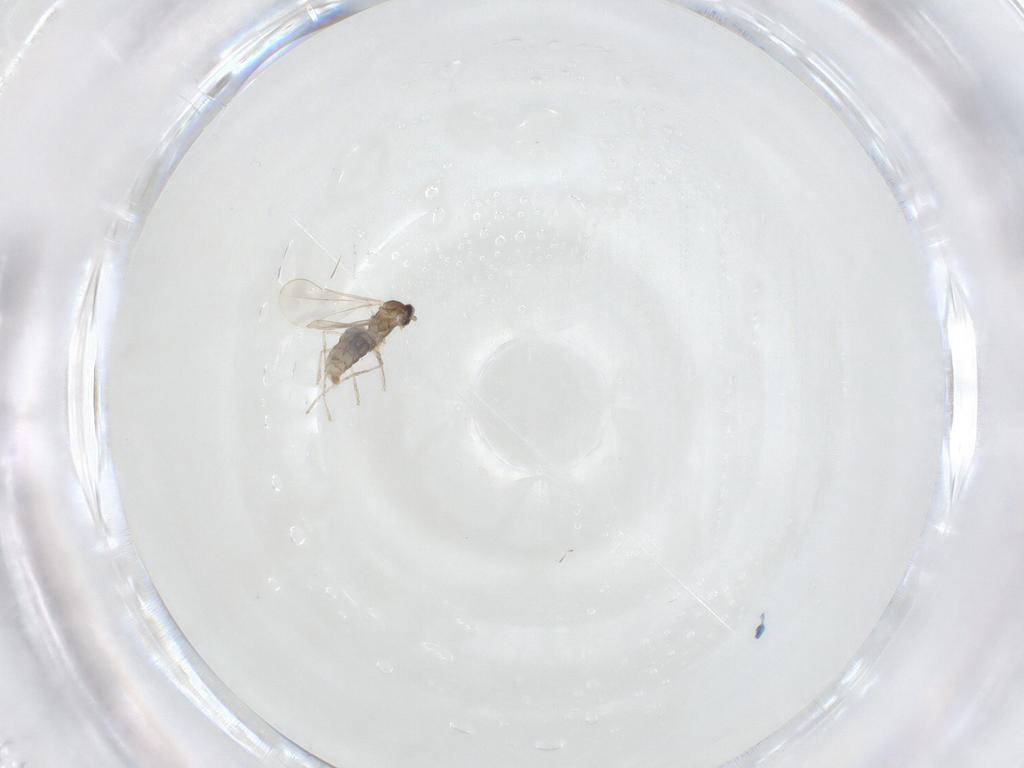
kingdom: Animalia
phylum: Arthropoda
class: Insecta
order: Diptera
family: Cecidomyiidae
